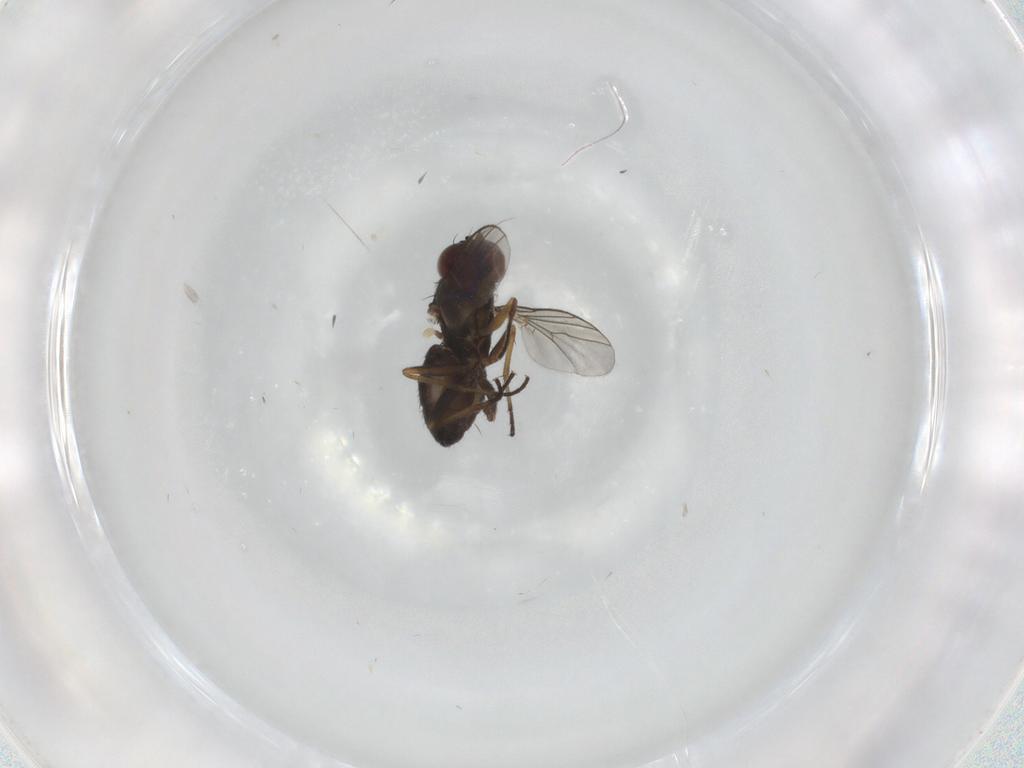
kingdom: Animalia
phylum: Arthropoda
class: Insecta
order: Diptera
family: Dolichopodidae
